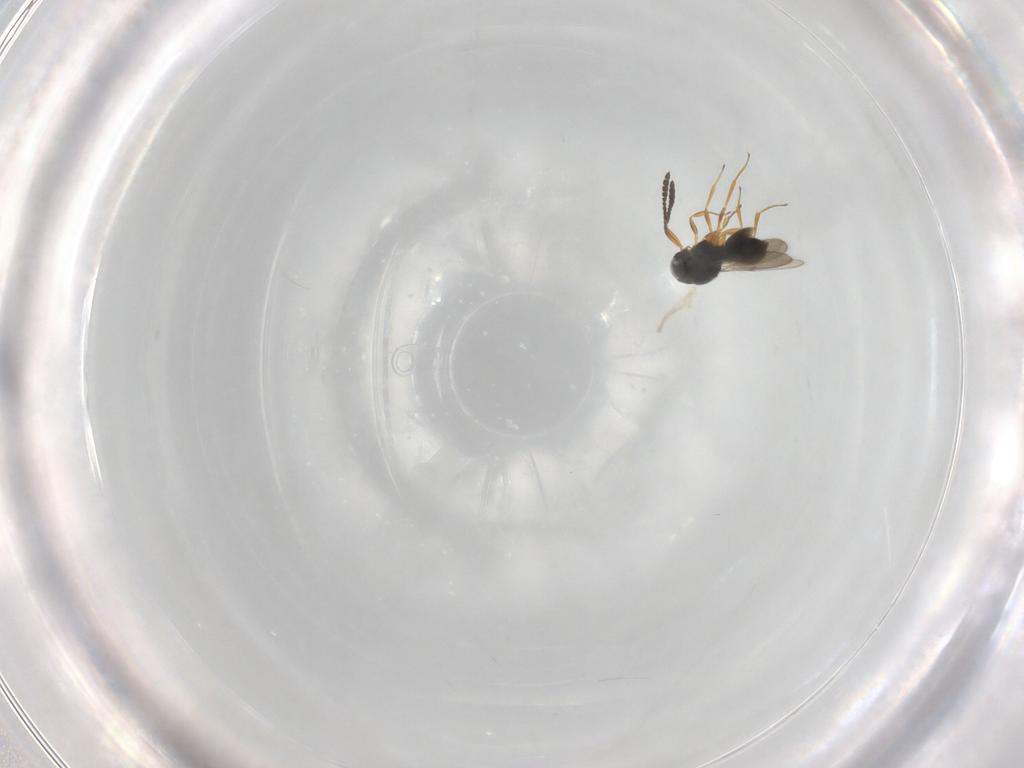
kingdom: Animalia
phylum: Arthropoda
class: Insecta
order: Hymenoptera
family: Scelionidae
